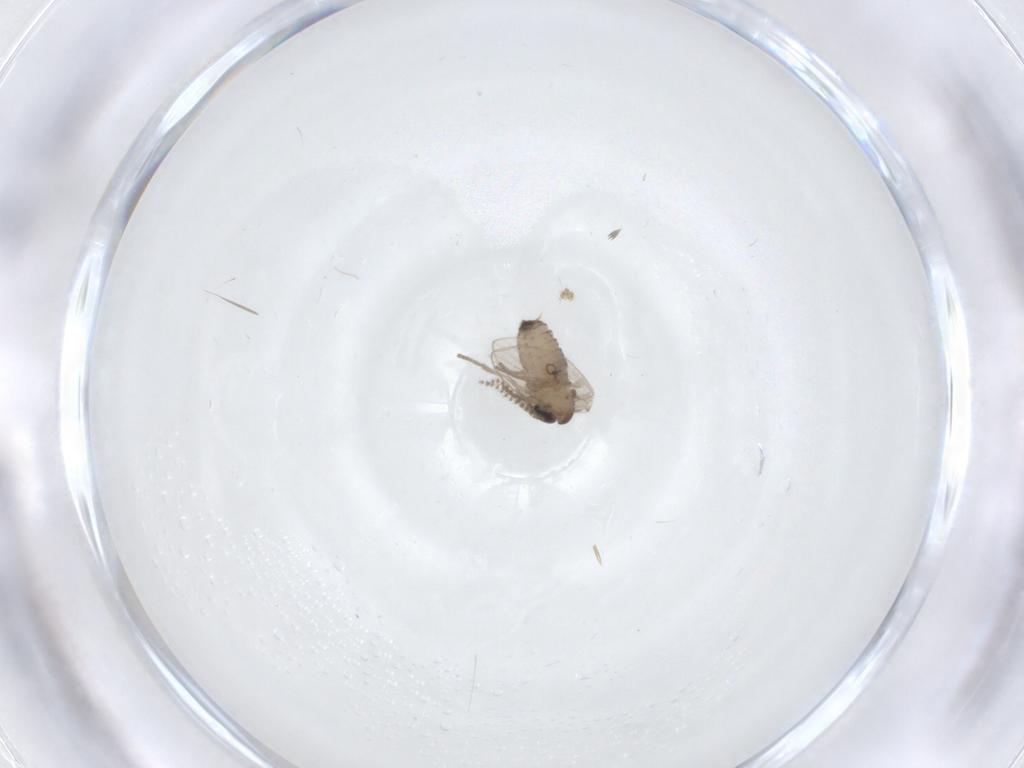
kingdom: Animalia
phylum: Arthropoda
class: Insecta
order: Diptera
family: Psychodidae
